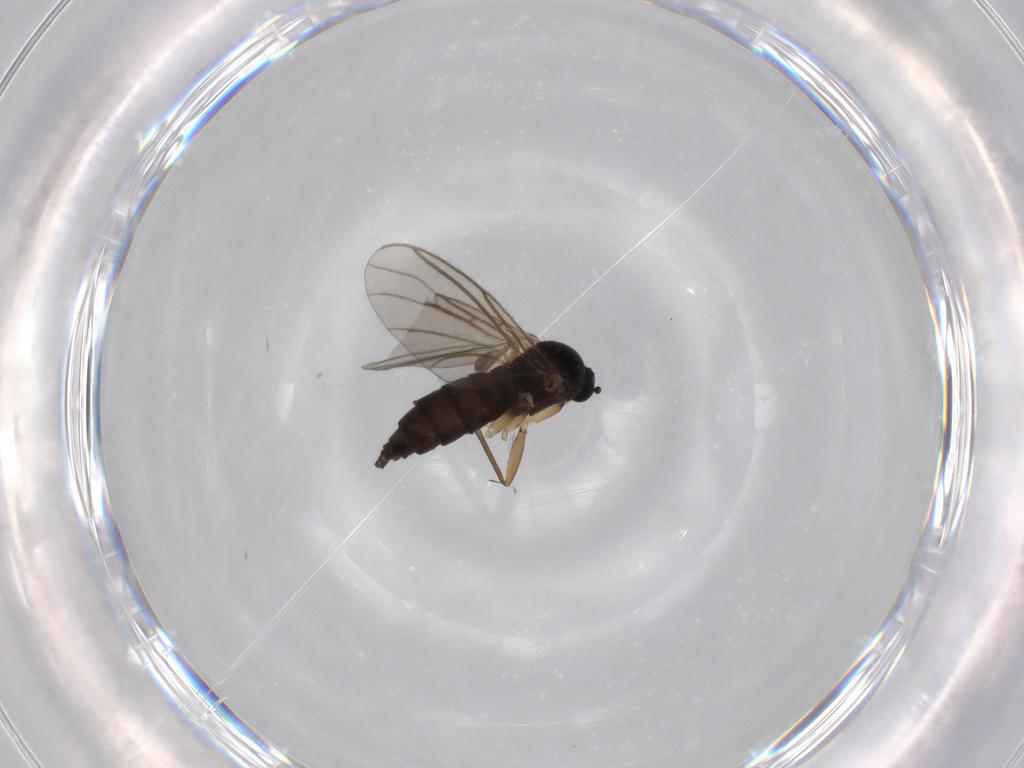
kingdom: Animalia
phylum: Arthropoda
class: Insecta
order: Diptera
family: Sciaridae
